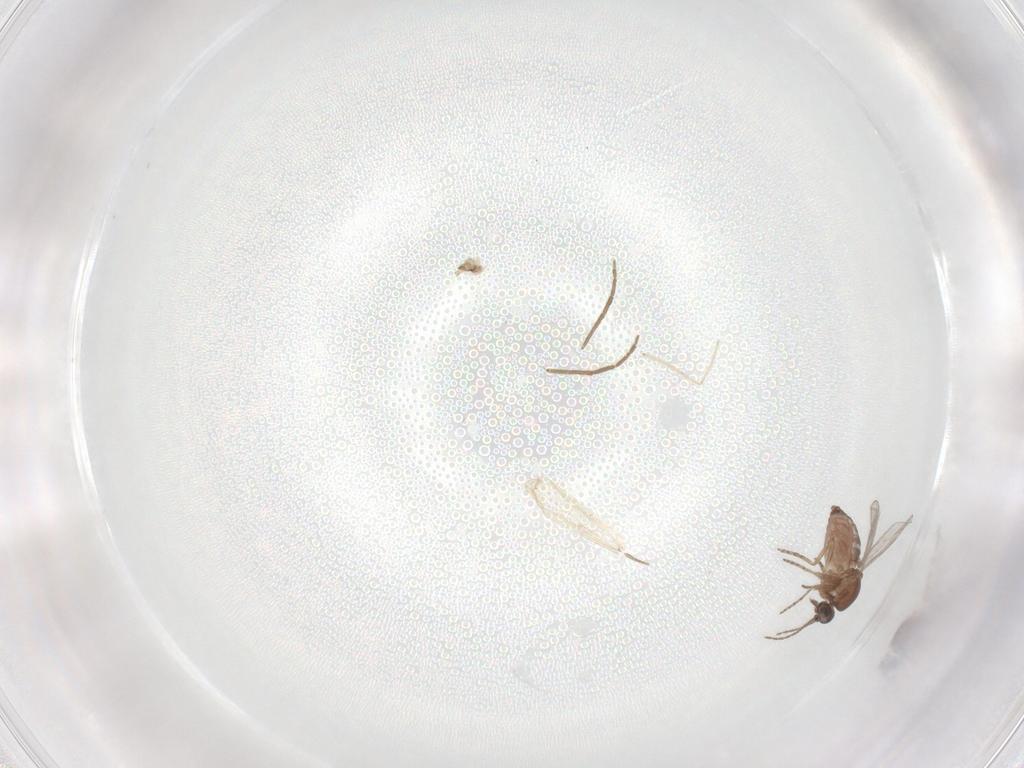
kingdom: Animalia
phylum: Arthropoda
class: Insecta
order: Diptera
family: Chironomidae
